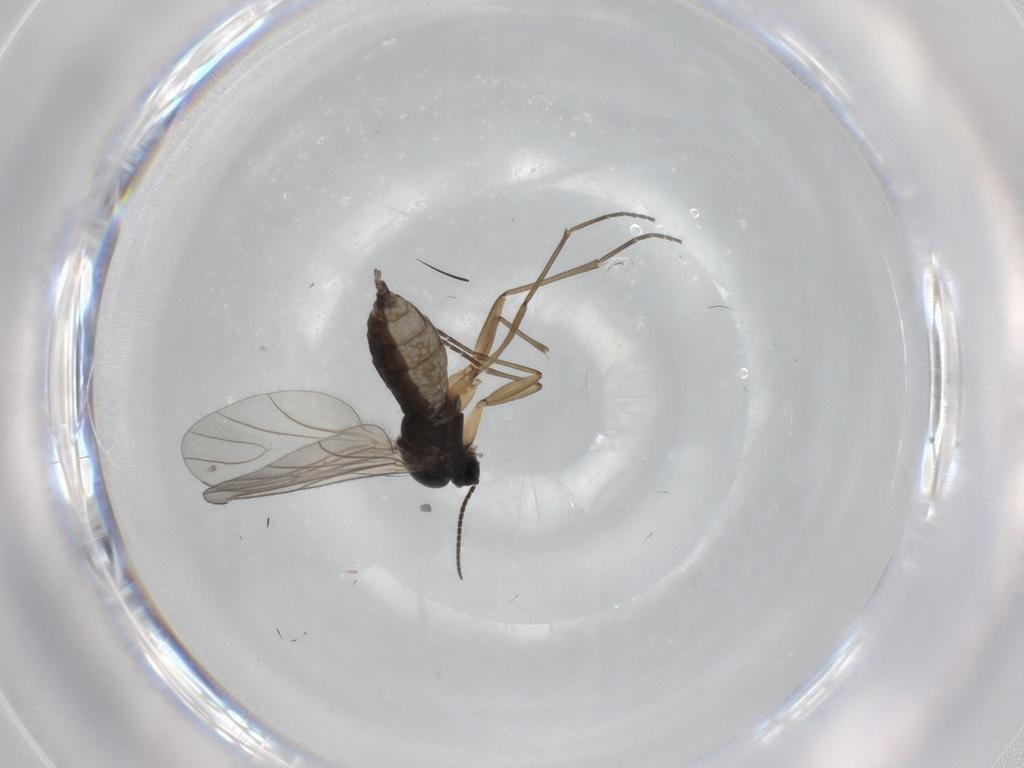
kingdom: Animalia
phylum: Arthropoda
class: Insecta
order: Diptera
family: Sciaridae
